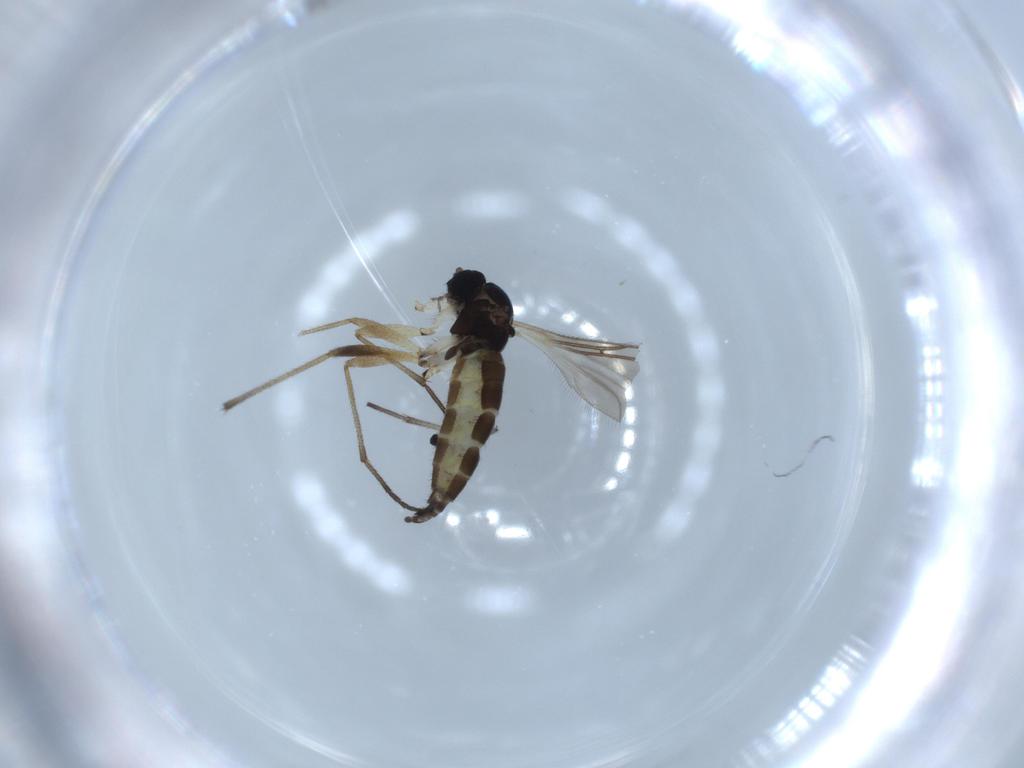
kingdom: Animalia
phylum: Arthropoda
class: Insecta
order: Diptera
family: Sciaridae
